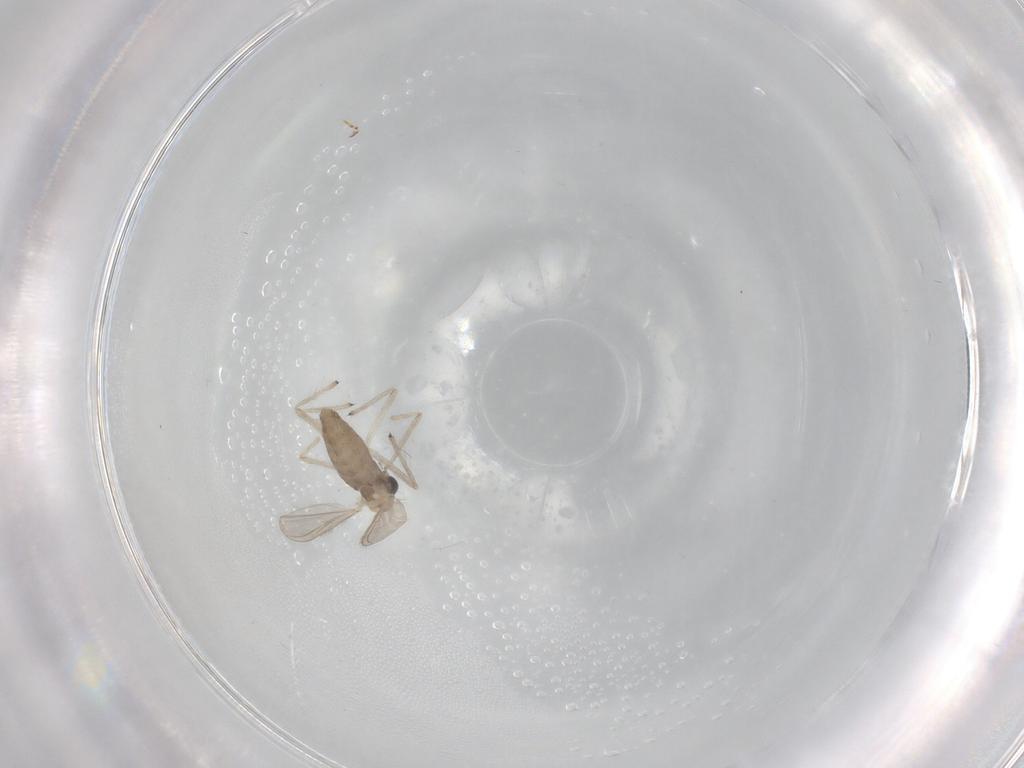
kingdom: Animalia
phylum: Arthropoda
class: Insecta
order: Diptera
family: Chironomidae
